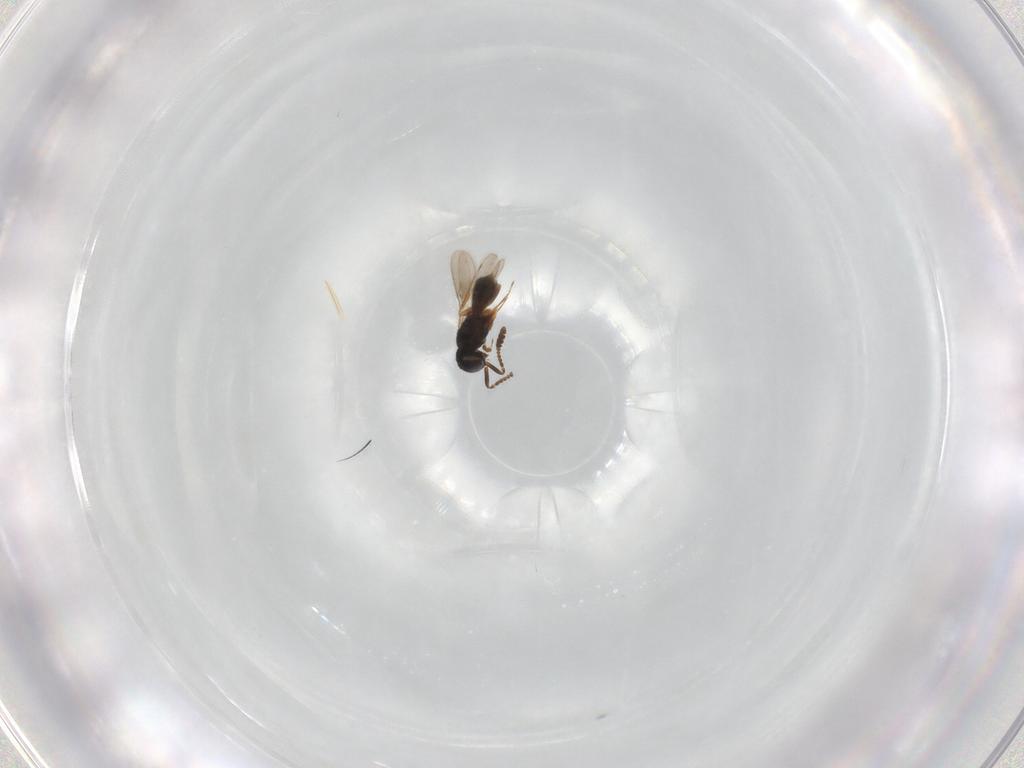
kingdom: Animalia
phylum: Arthropoda
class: Insecta
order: Hymenoptera
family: Scelionidae
